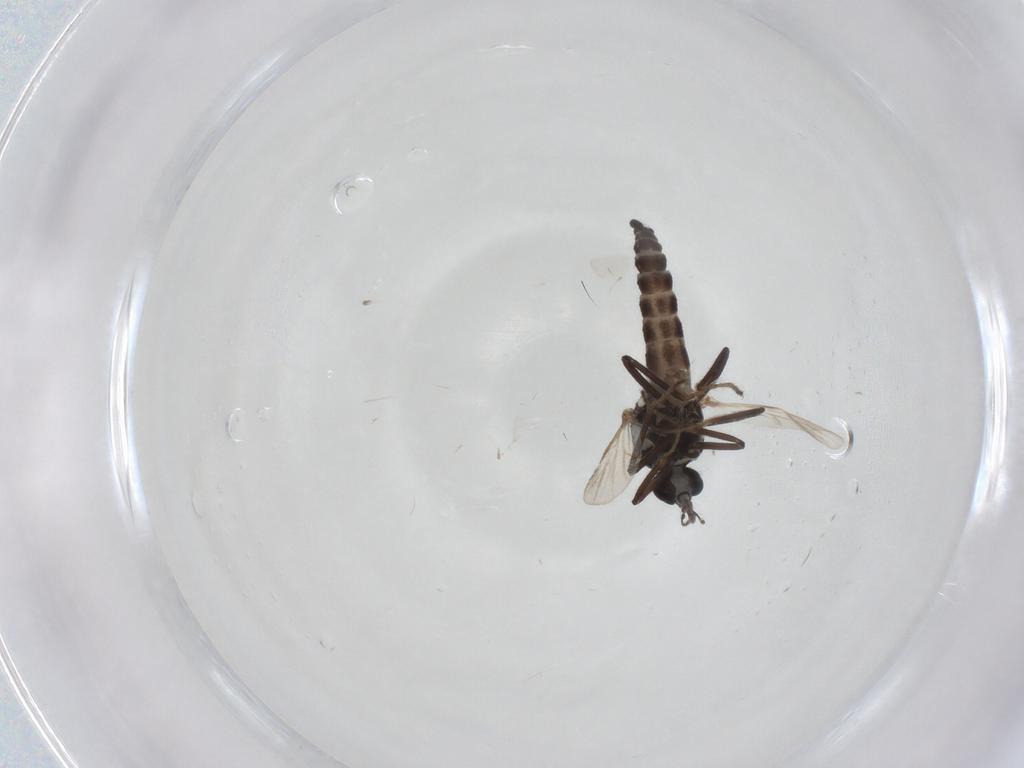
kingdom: Animalia
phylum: Arthropoda
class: Insecta
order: Diptera
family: Ceratopogonidae
